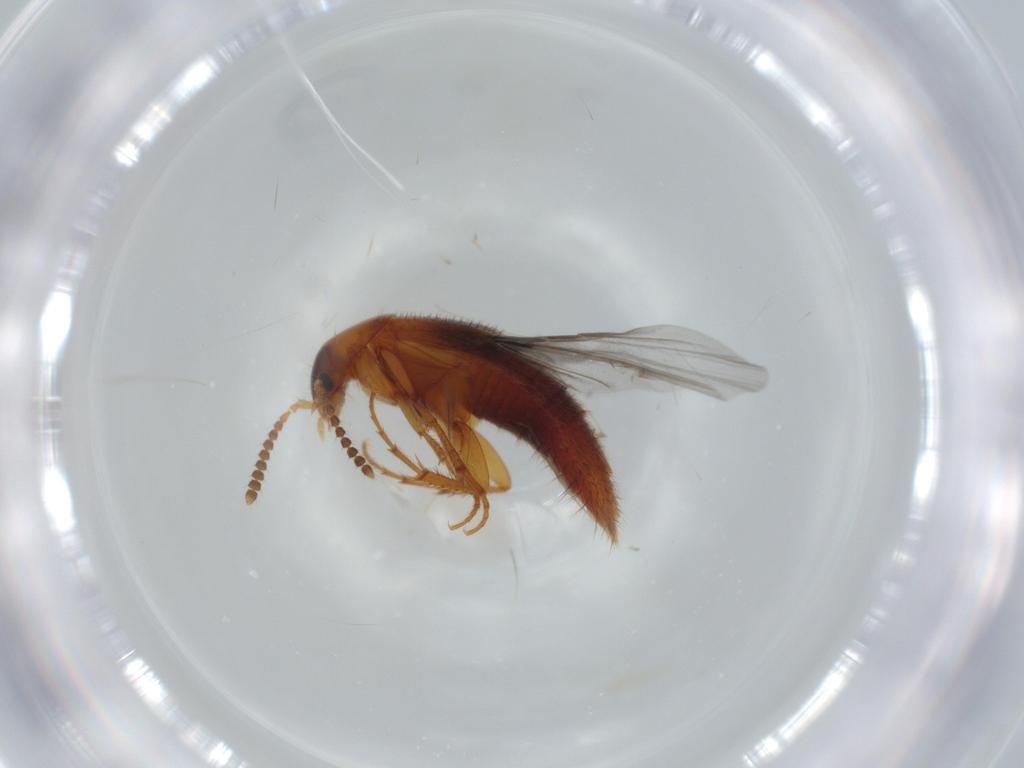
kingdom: Animalia
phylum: Arthropoda
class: Insecta
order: Coleoptera
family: Staphylinidae
